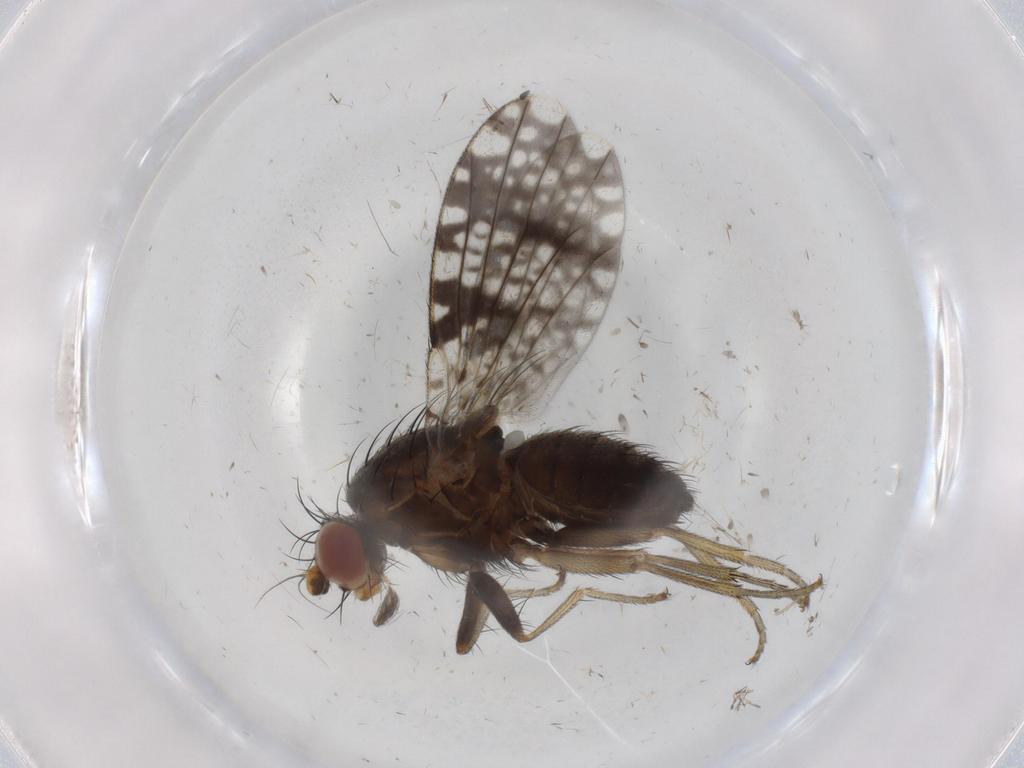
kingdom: Animalia
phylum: Arthropoda
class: Insecta
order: Diptera
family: Tephritidae
